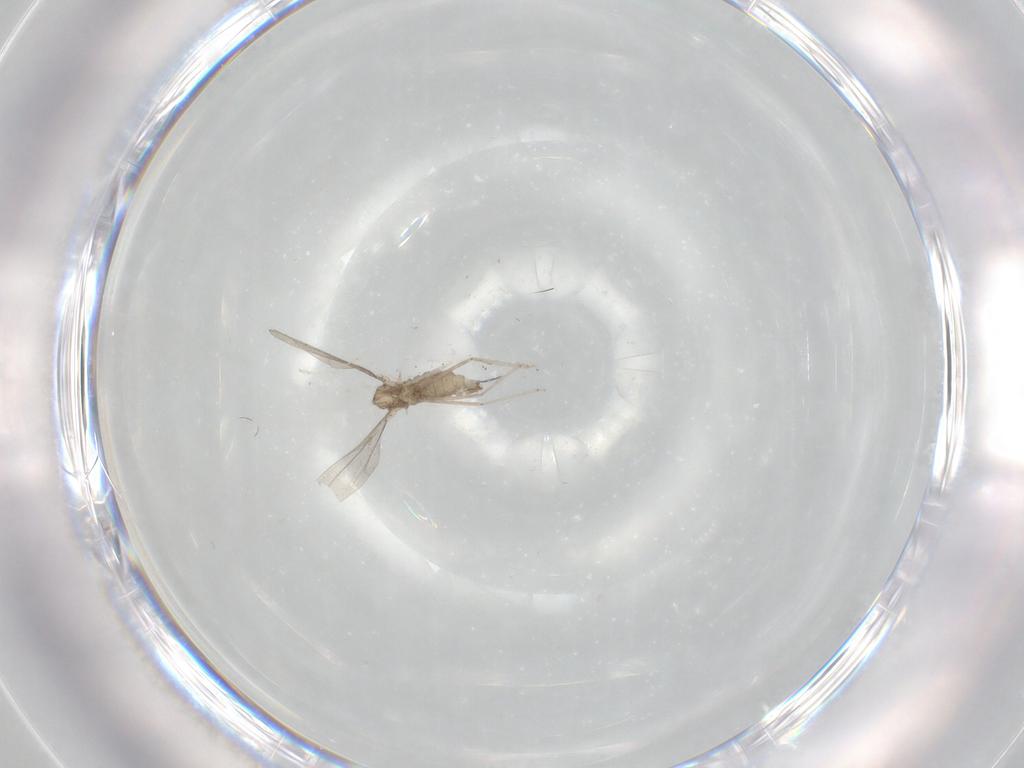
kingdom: Animalia
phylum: Arthropoda
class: Insecta
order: Diptera
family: Cecidomyiidae
